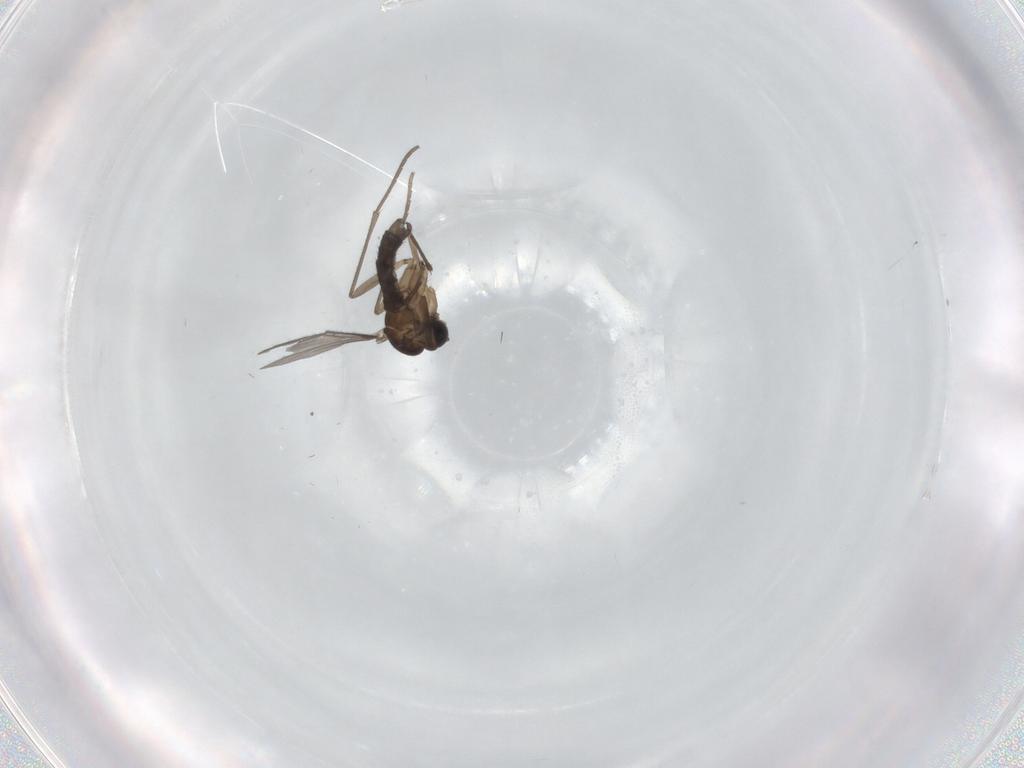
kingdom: Animalia
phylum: Arthropoda
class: Insecta
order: Diptera
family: Sciaridae
